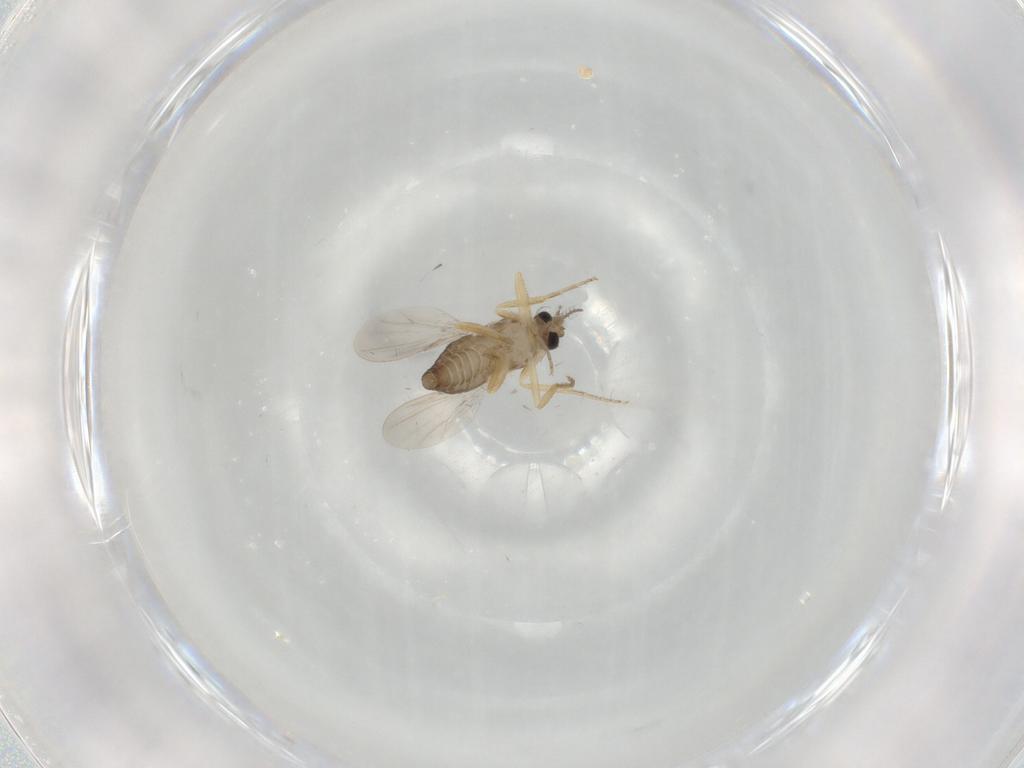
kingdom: Animalia
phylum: Arthropoda
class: Insecta
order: Diptera
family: Ceratopogonidae
